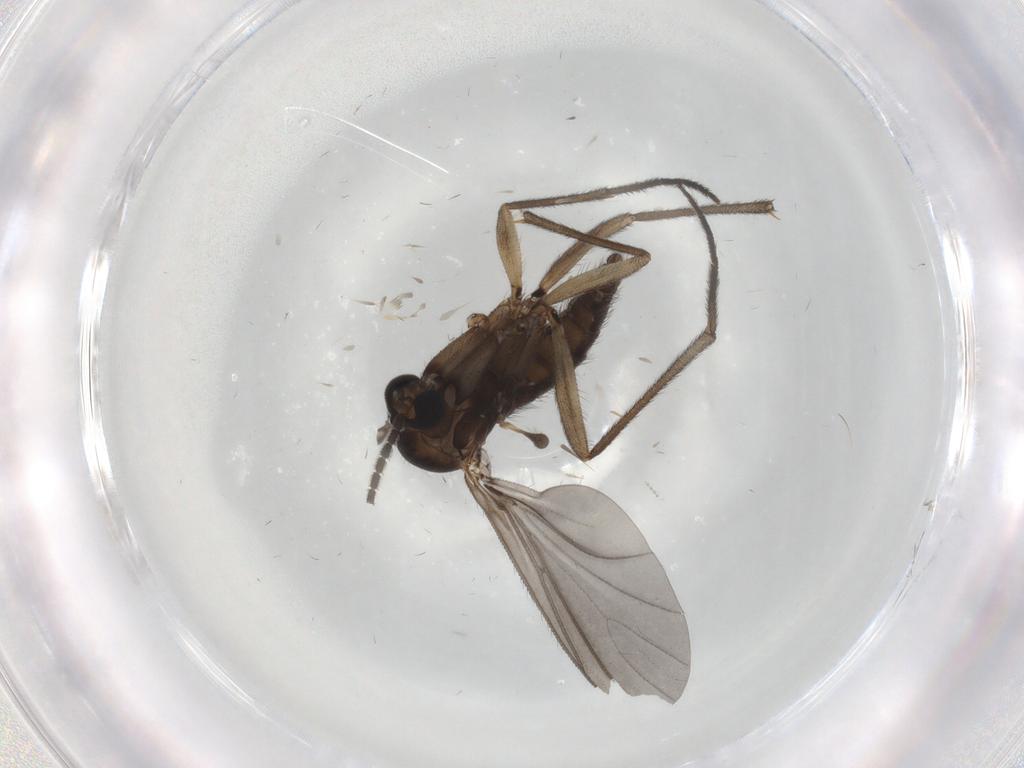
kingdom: Animalia
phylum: Arthropoda
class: Insecta
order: Diptera
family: Sciaridae
